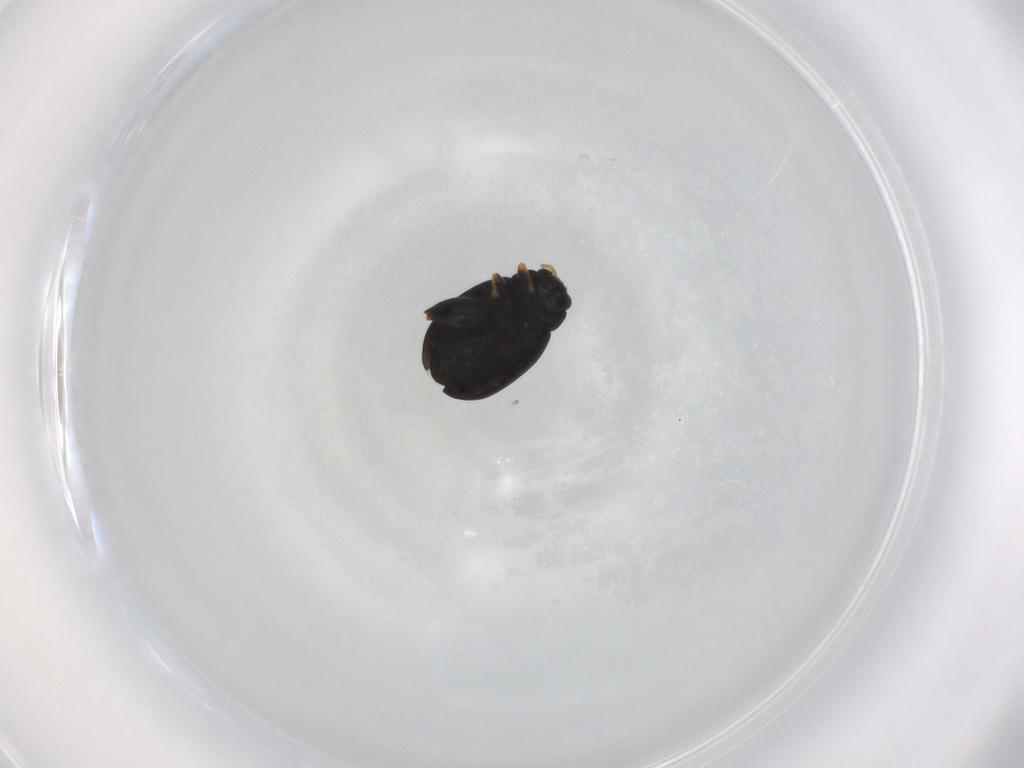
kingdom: Animalia
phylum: Arthropoda
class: Insecta
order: Coleoptera
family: Chrysomelidae
